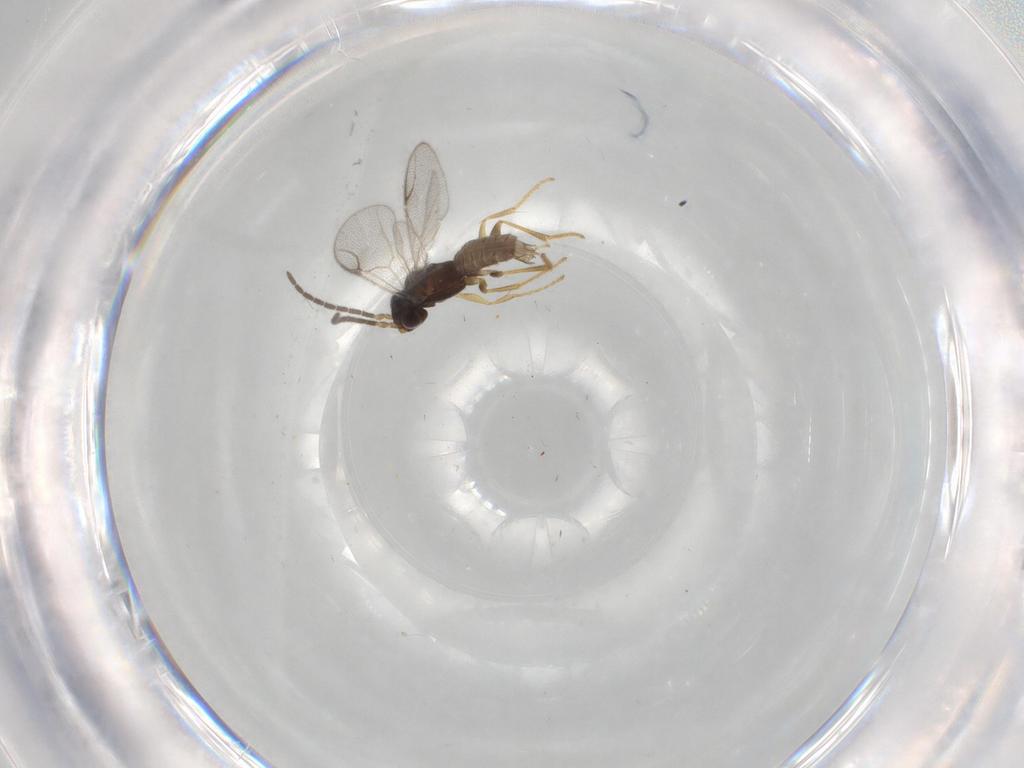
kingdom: Animalia
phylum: Arthropoda
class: Insecta
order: Hymenoptera
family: Dryinidae
